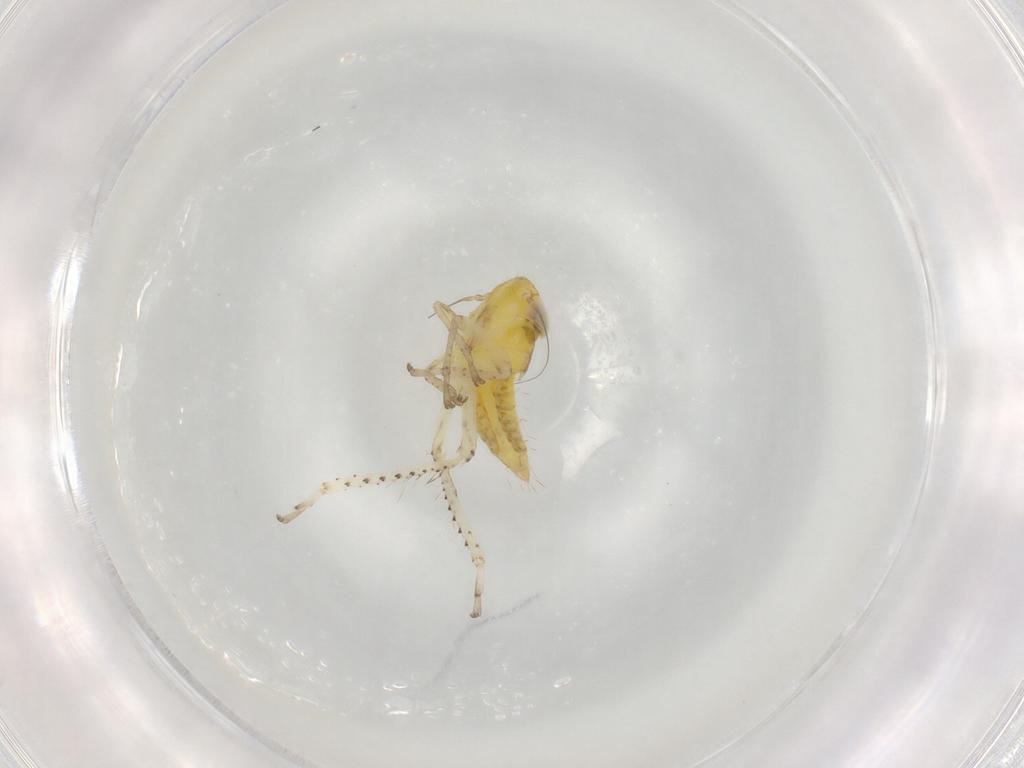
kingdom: Animalia
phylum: Arthropoda
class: Insecta
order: Hemiptera
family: Cicadellidae
